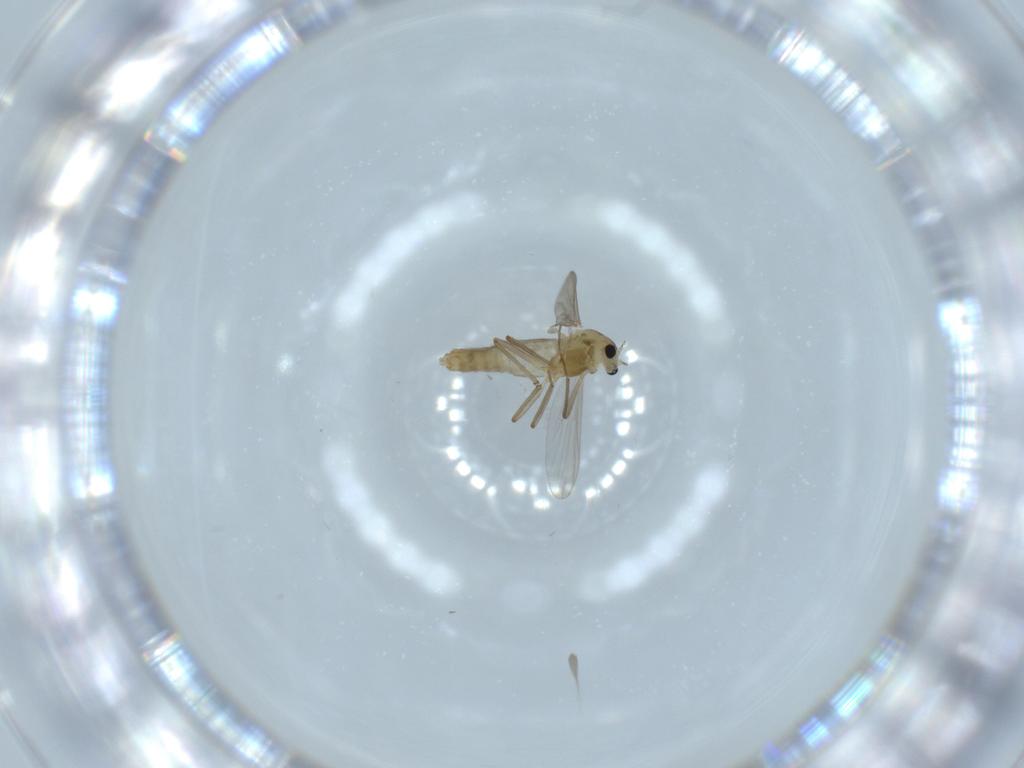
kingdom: Animalia
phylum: Arthropoda
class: Insecta
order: Diptera
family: Chironomidae
